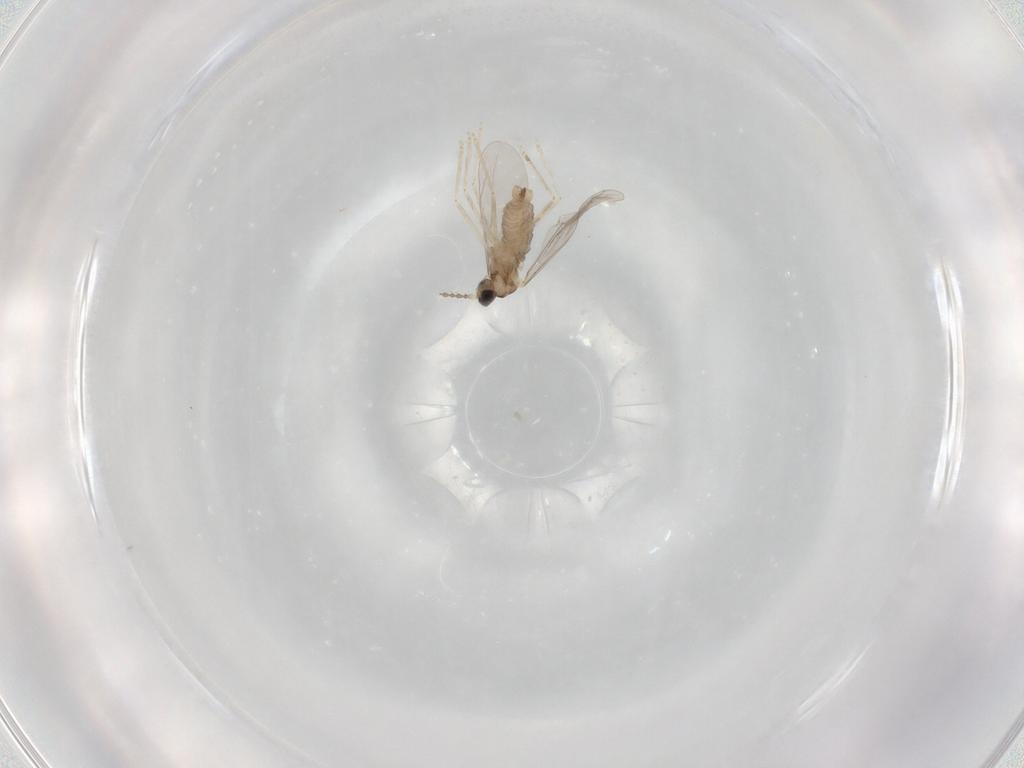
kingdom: Animalia
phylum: Arthropoda
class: Insecta
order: Diptera
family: Cecidomyiidae
